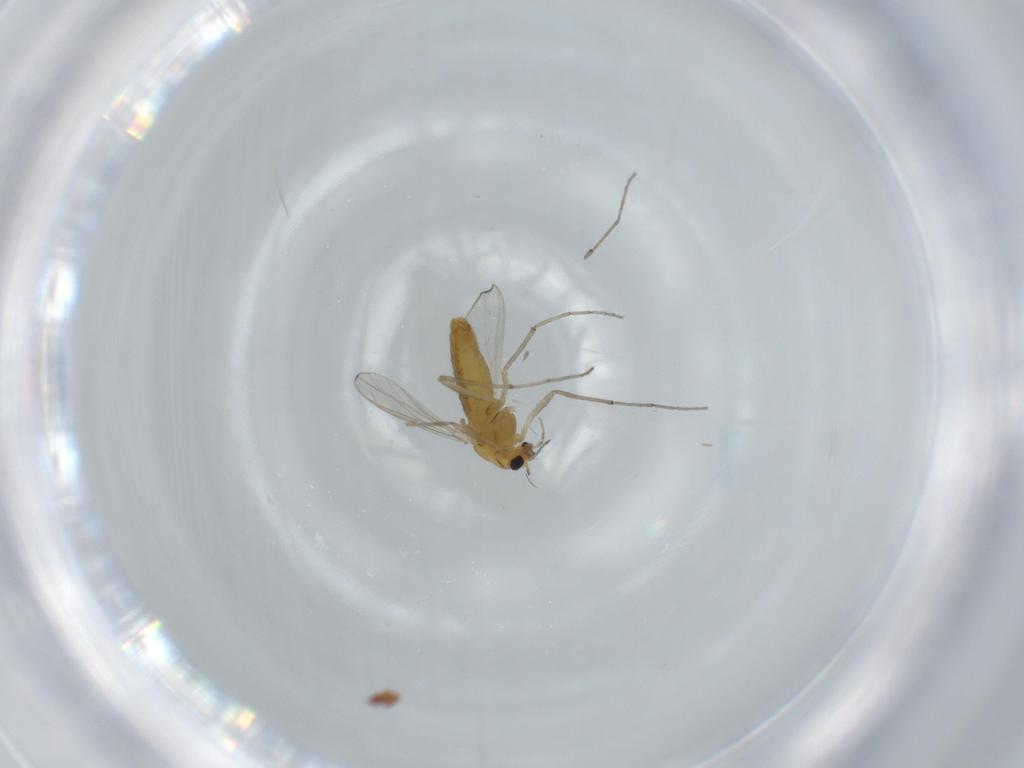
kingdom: Animalia
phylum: Arthropoda
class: Insecta
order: Diptera
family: Chironomidae
